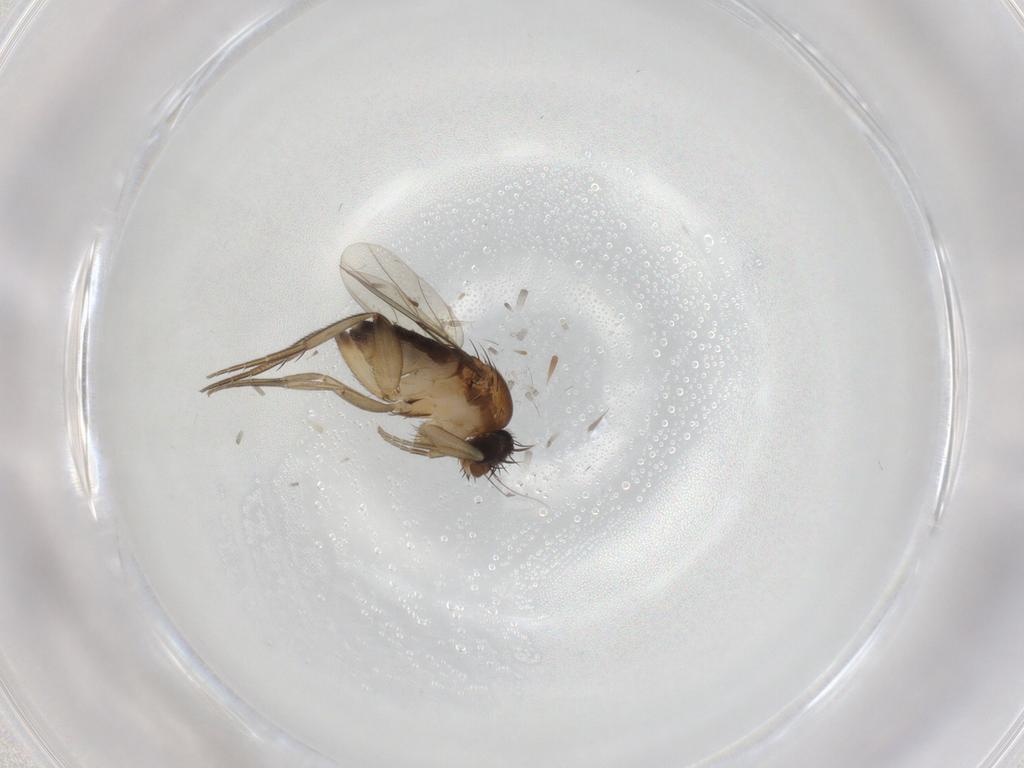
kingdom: Animalia
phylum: Arthropoda
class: Insecta
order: Diptera
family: Phoridae
